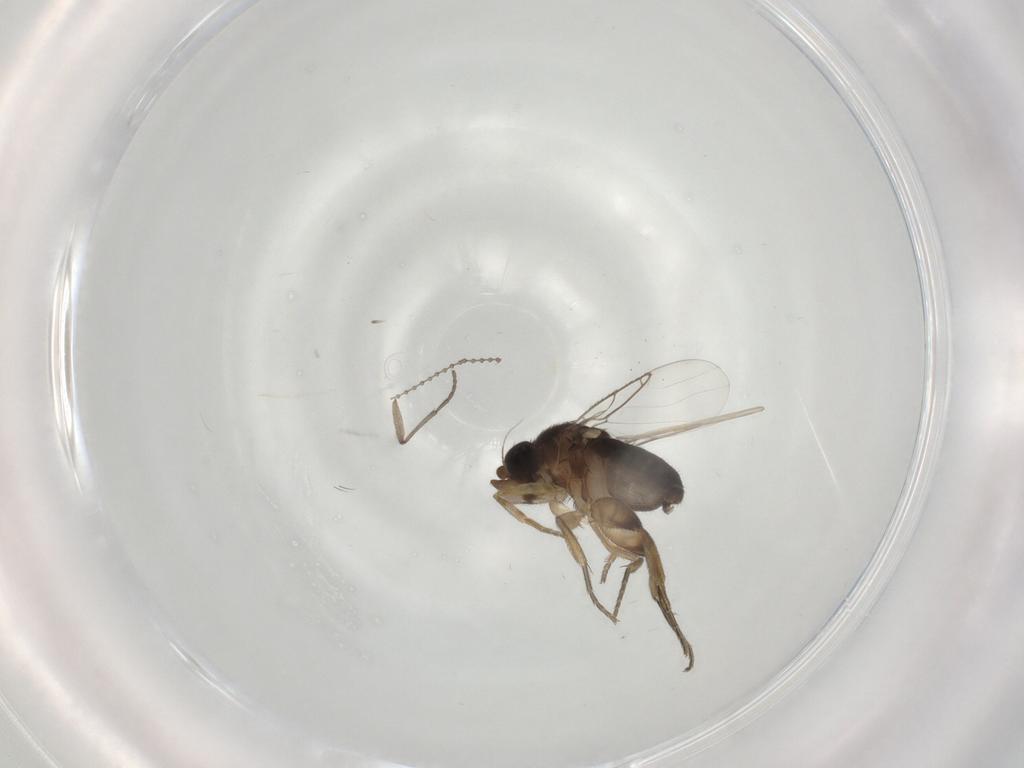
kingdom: Animalia
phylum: Arthropoda
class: Insecta
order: Diptera
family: Phoridae
